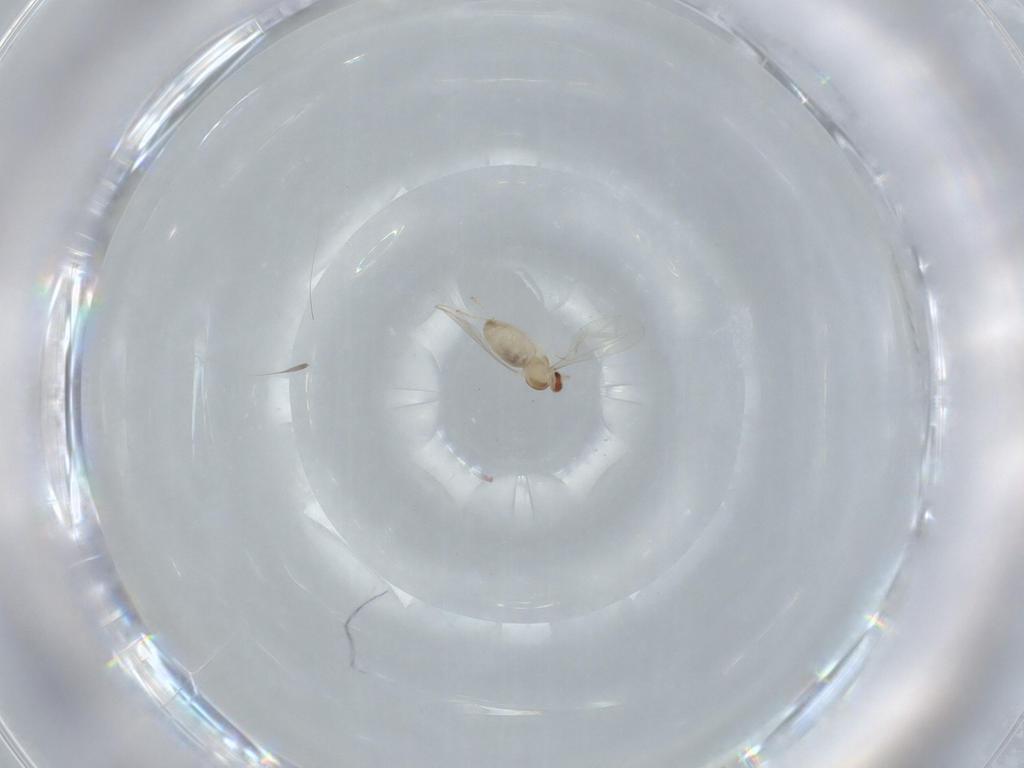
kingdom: Animalia
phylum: Arthropoda
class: Insecta
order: Diptera
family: Cecidomyiidae
